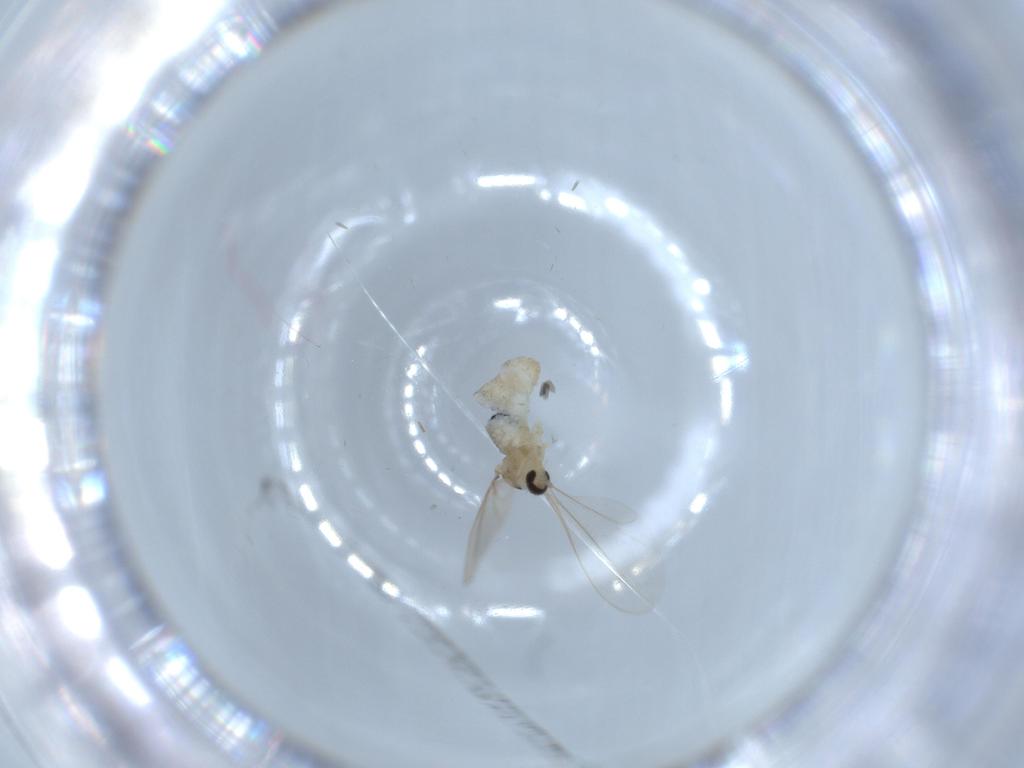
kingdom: Animalia
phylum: Arthropoda
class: Insecta
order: Diptera
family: Cecidomyiidae
